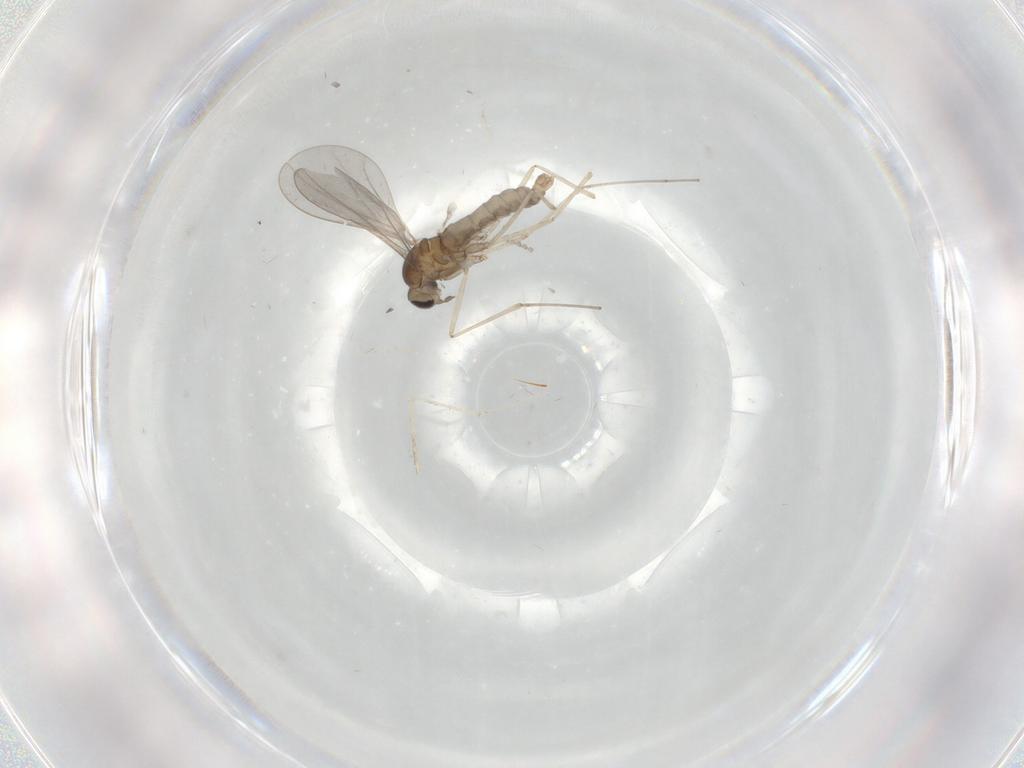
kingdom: Animalia
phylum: Arthropoda
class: Insecta
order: Diptera
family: Cecidomyiidae
